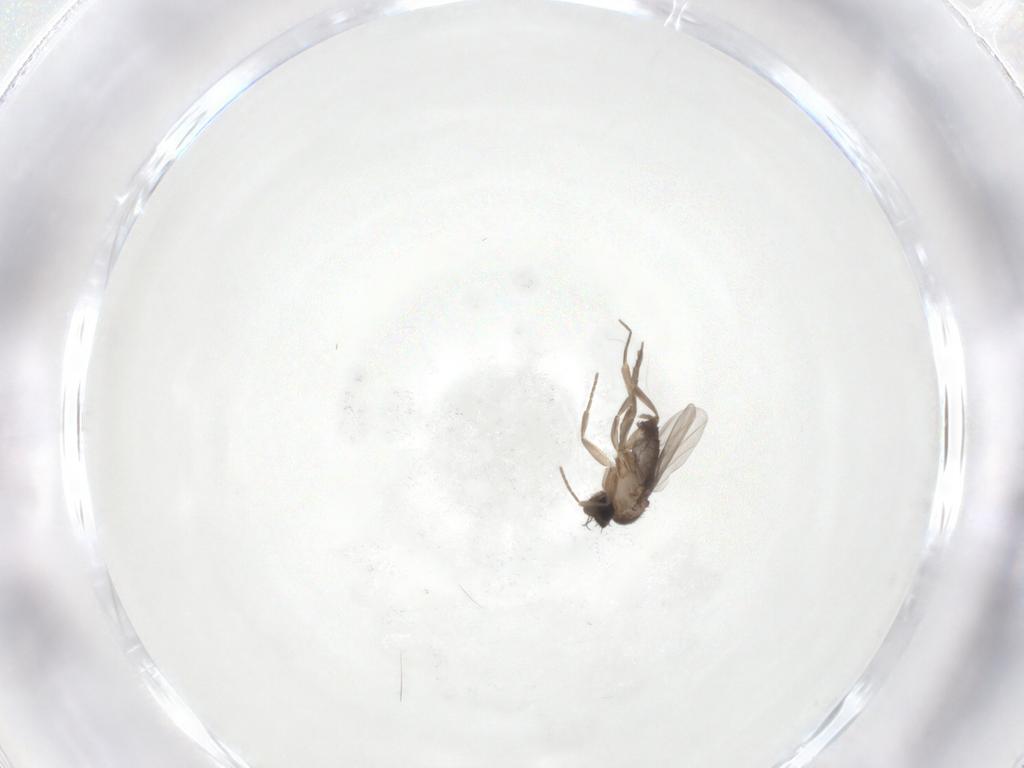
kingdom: Animalia
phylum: Arthropoda
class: Insecta
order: Diptera
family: Phoridae
